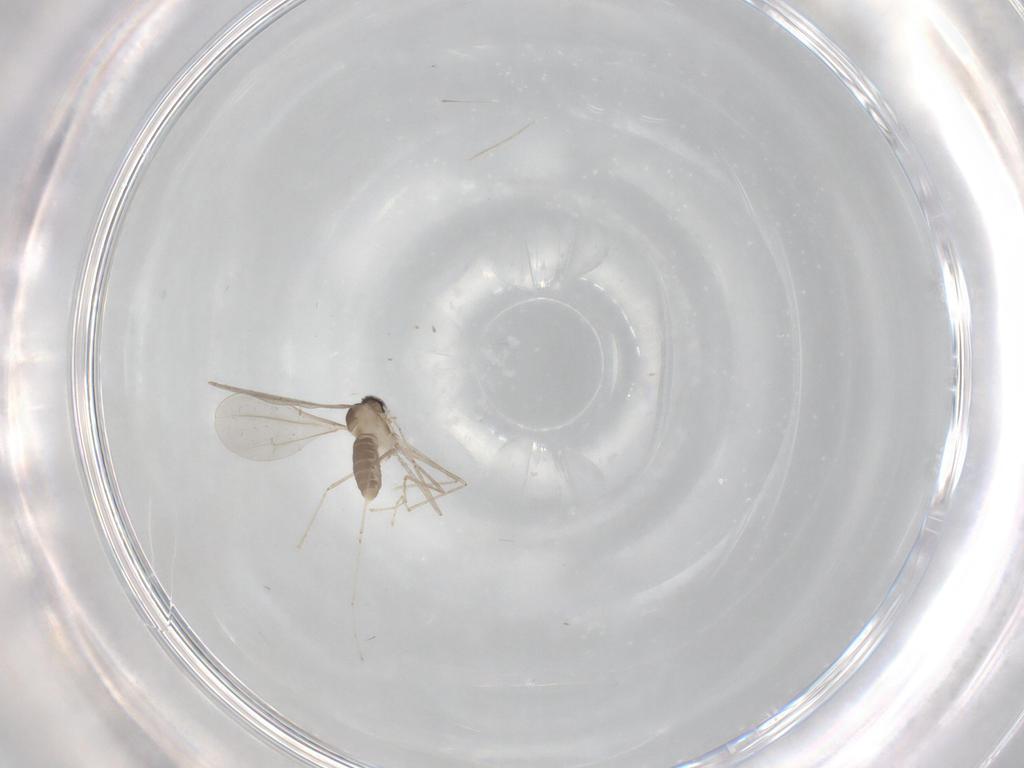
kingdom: Animalia
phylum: Arthropoda
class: Insecta
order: Diptera
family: Cecidomyiidae
